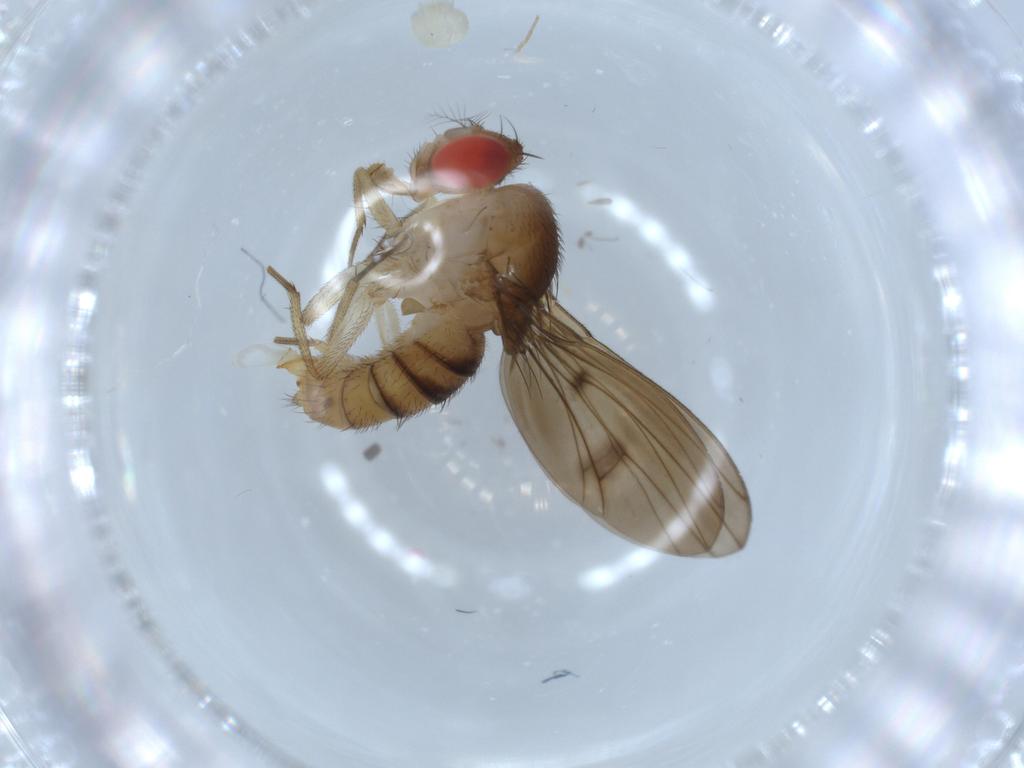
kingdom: Animalia
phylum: Arthropoda
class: Insecta
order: Diptera
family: Drosophilidae
